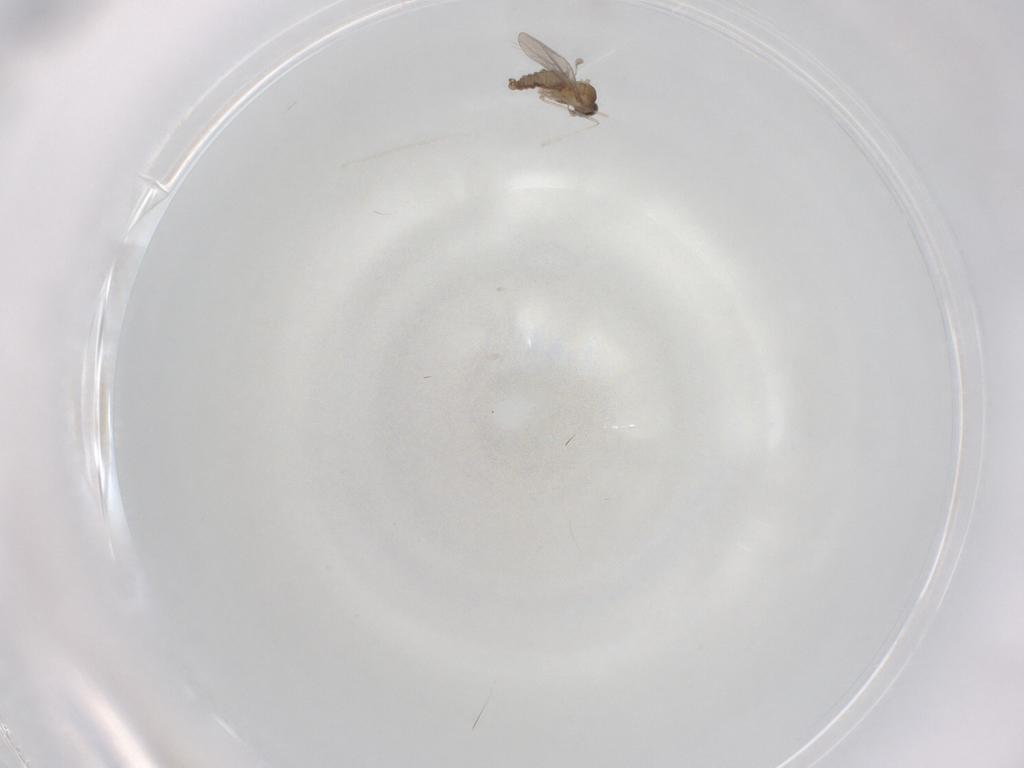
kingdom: Animalia
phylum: Arthropoda
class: Insecta
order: Diptera
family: Cecidomyiidae
